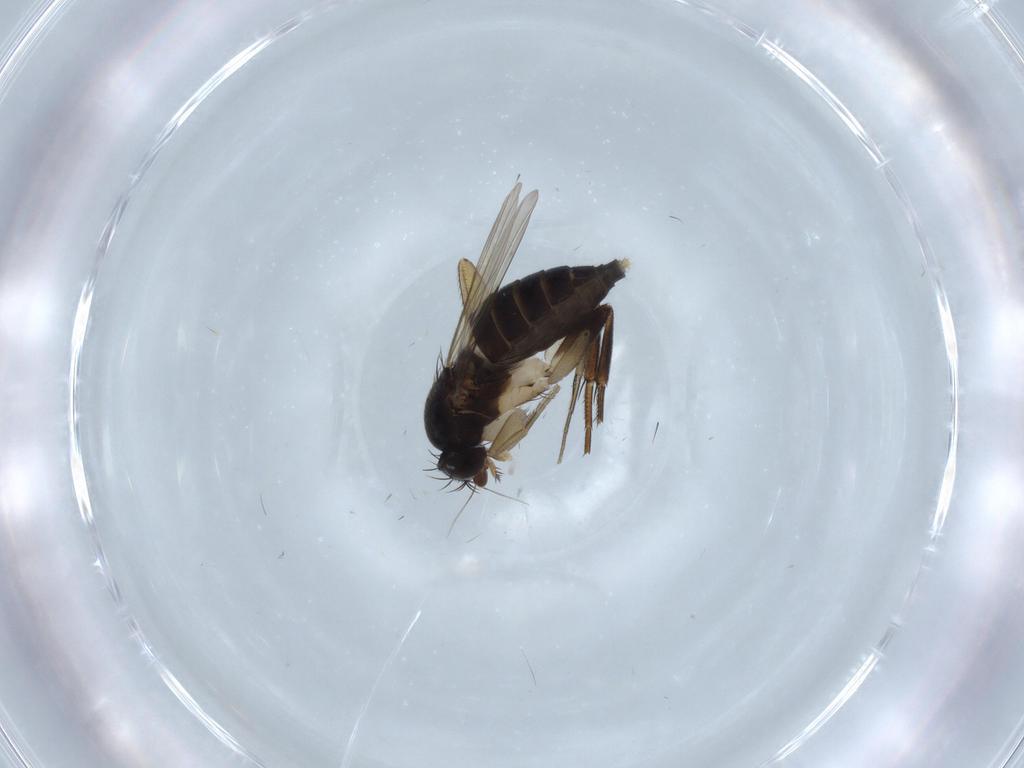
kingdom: Animalia
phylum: Arthropoda
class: Insecta
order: Diptera
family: Phoridae
